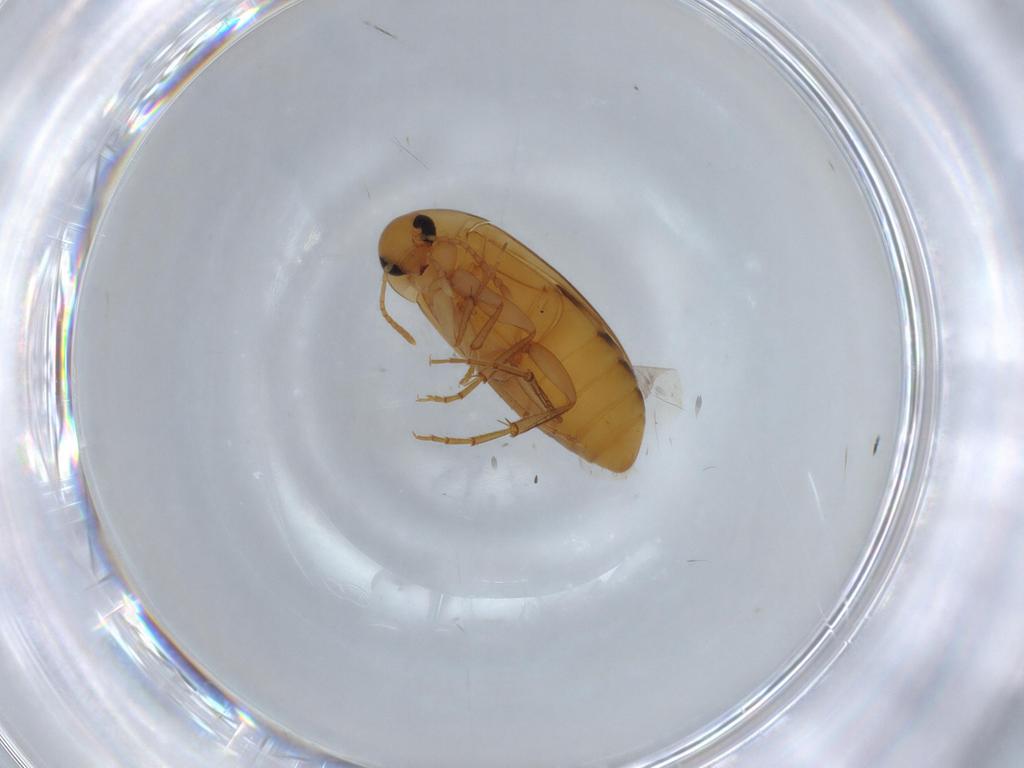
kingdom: Animalia
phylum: Arthropoda
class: Insecta
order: Coleoptera
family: Scraptiidae
